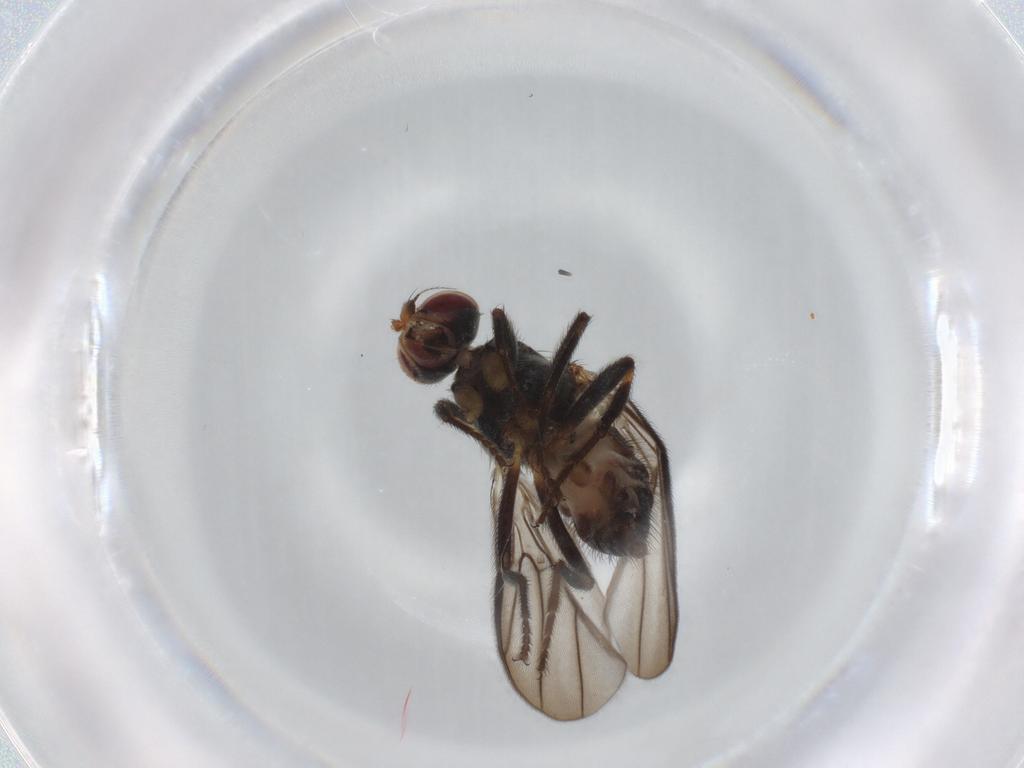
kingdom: Animalia
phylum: Arthropoda
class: Insecta
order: Diptera
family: Chloropidae
